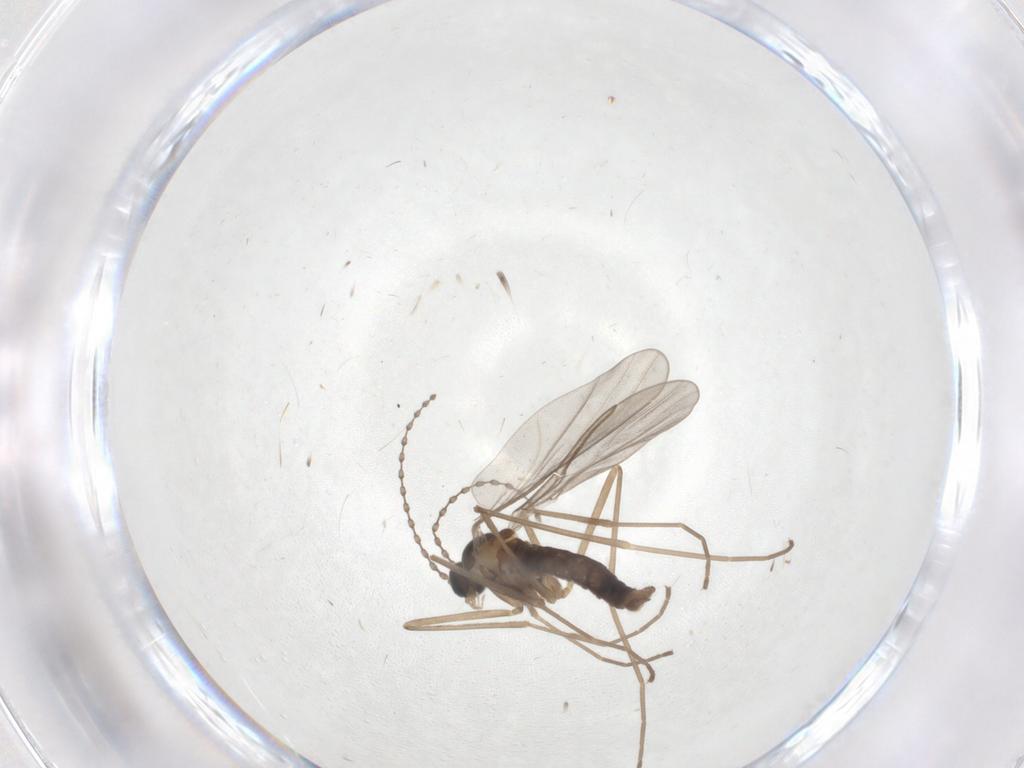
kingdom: Animalia
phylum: Arthropoda
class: Insecta
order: Diptera
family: Cecidomyiidae
